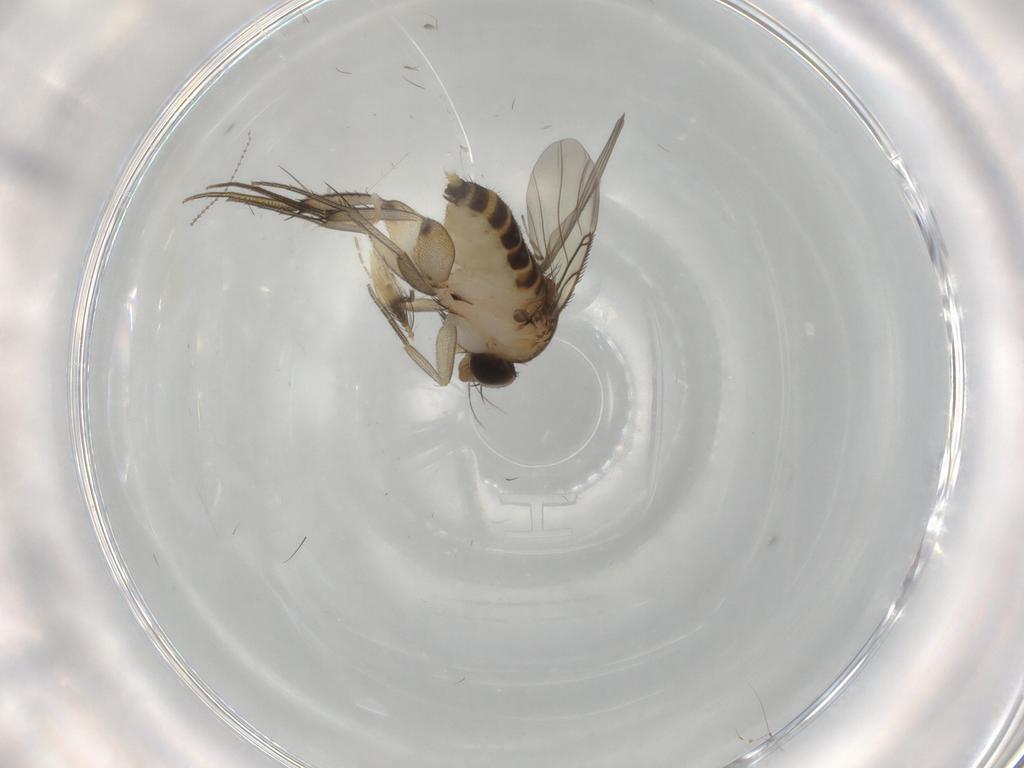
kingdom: Animalia
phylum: Arthropoda
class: Insecta
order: Diptera
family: Phoridae
